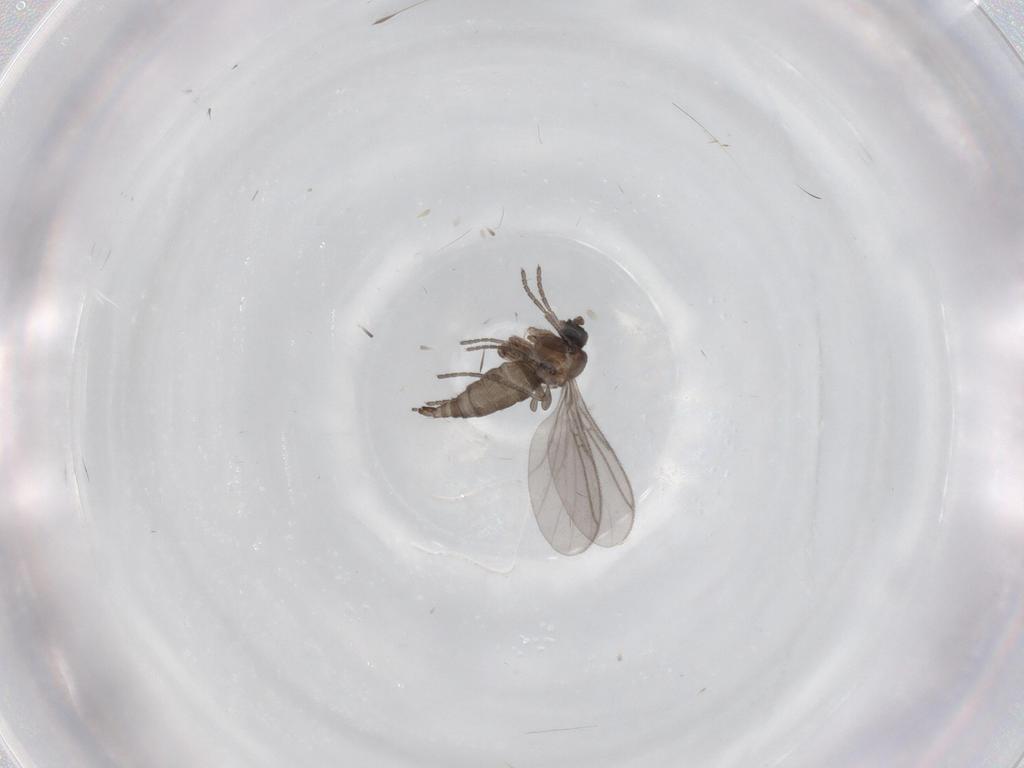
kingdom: Animalia
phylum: Arthropoda
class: Insecta
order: Diptera
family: Sciaridae
